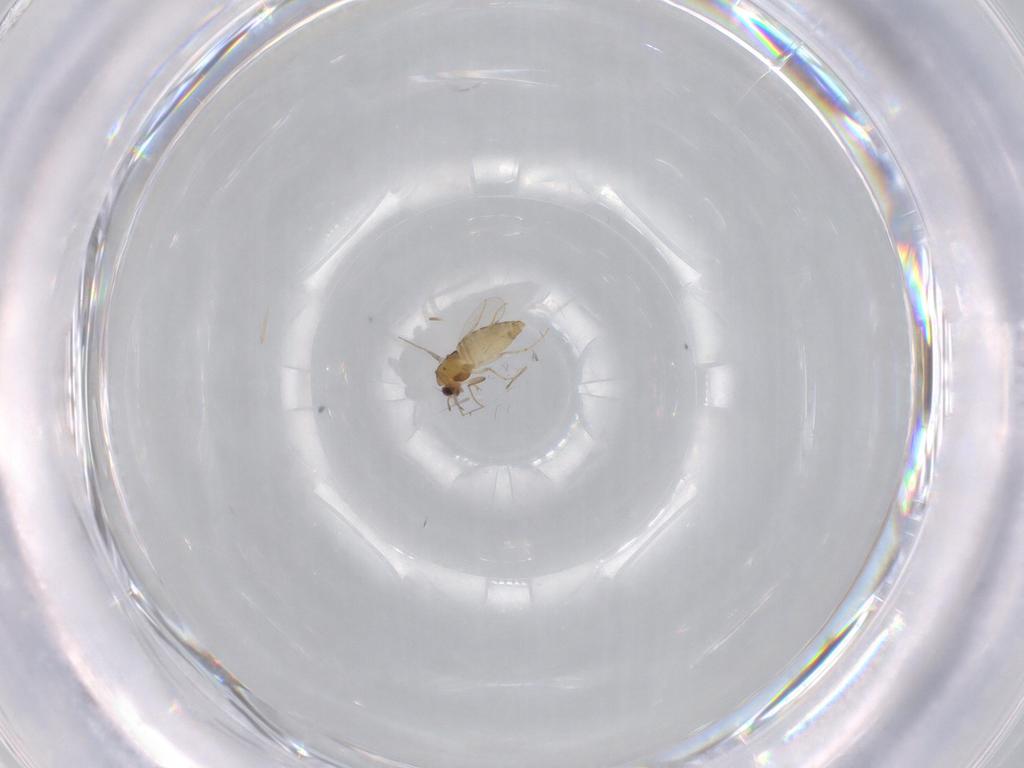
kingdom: Animalia
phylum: Arthropoda
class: Insecta
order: Diptera
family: Chironomidae
